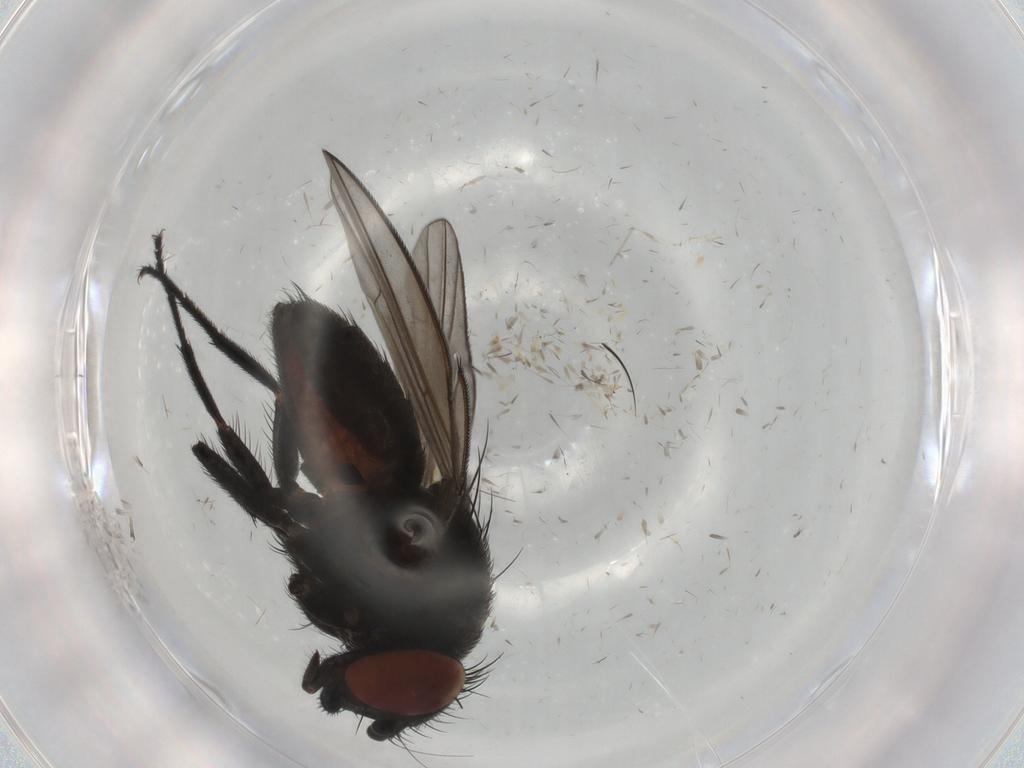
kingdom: Animalia
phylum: Arthropoda
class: Insecta
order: Diptera
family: Milichiidae
